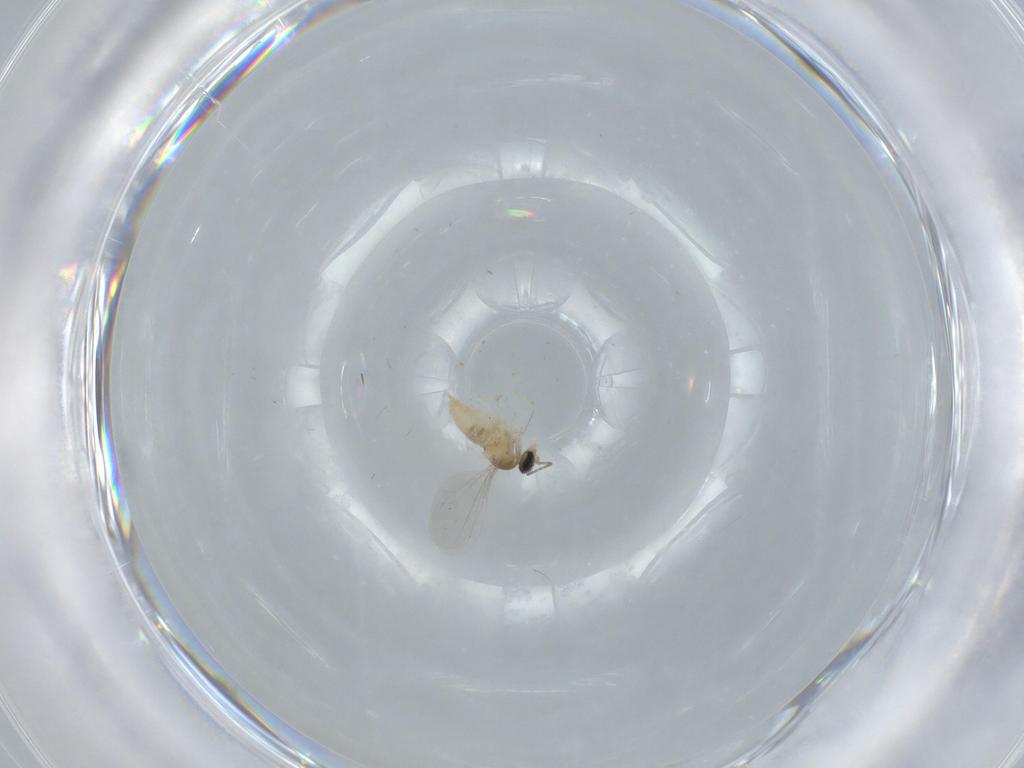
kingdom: Animalia
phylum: Arthropoda
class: Insecta
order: Diptera
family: Cecidomyiidae
